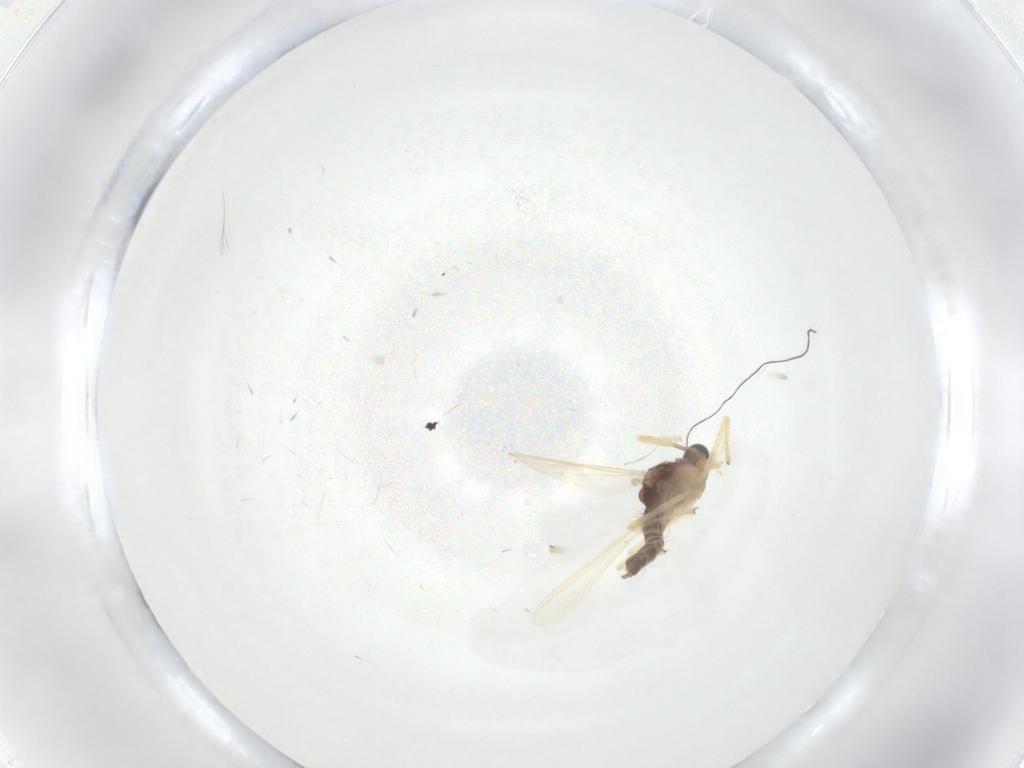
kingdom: Animalia
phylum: Arthropoda
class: Insecta
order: Diptera
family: Chironomidae
